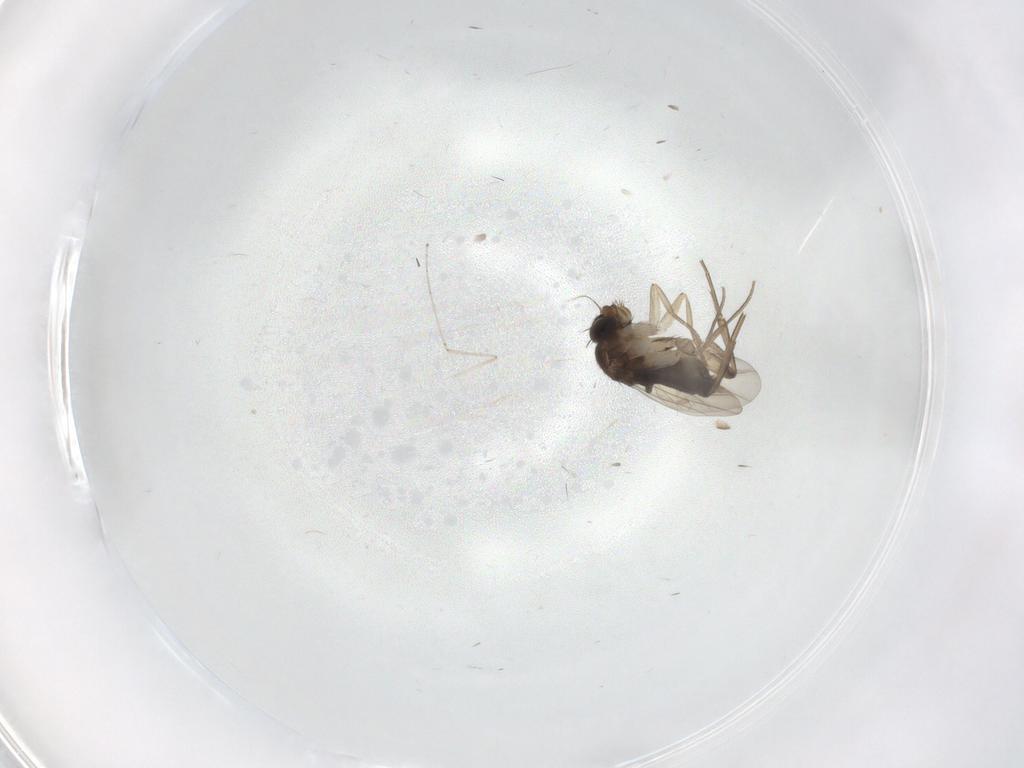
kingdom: Animalia
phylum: Arthropoda
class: Insecta
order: Diptera
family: Phoridae
